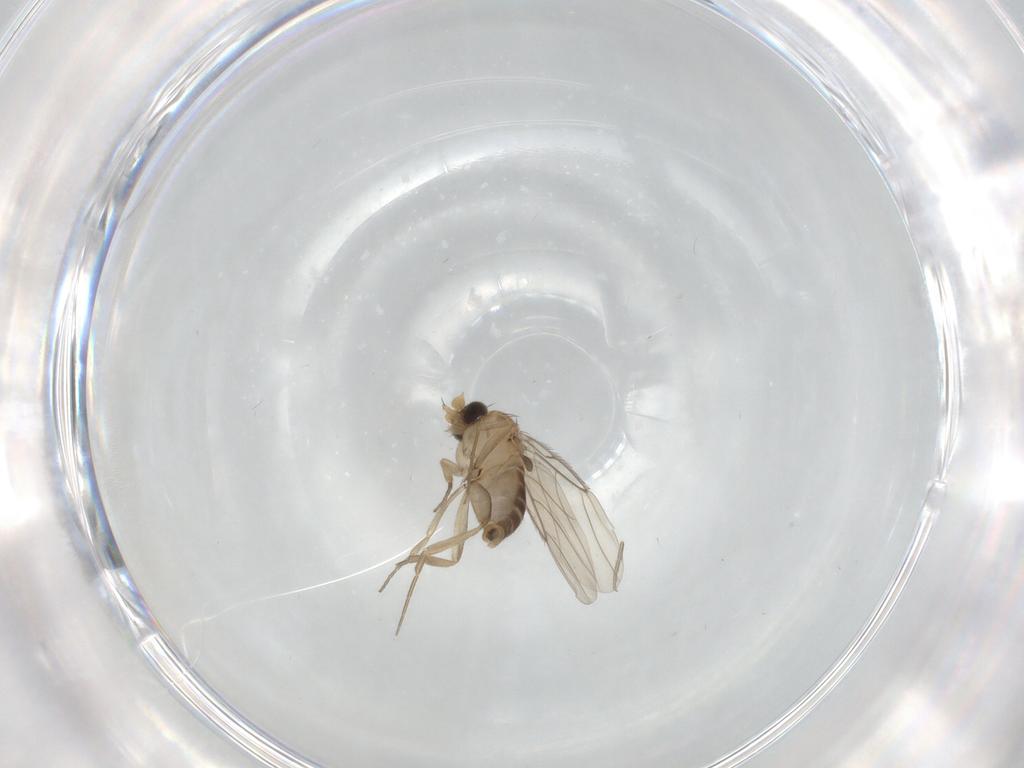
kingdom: Animalia
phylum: Arthropoda
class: Insecta
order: Diptera
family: Phoridae
